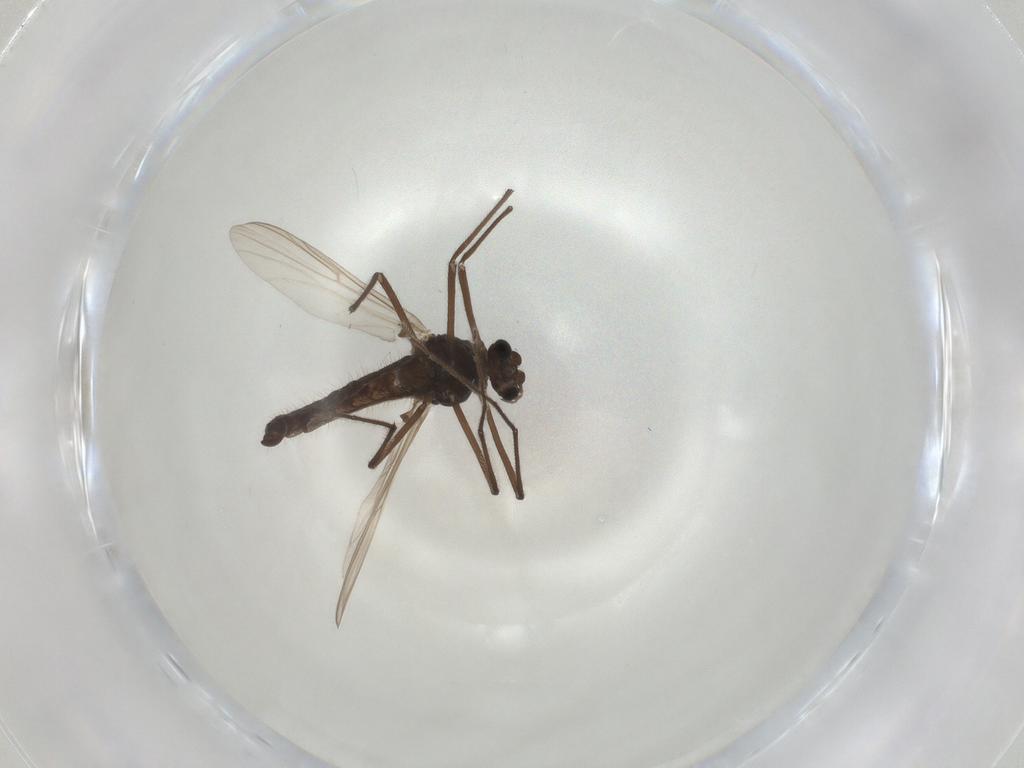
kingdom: Animalia
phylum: Arthropoda
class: Insecta
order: Diptera
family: Chironomidae
